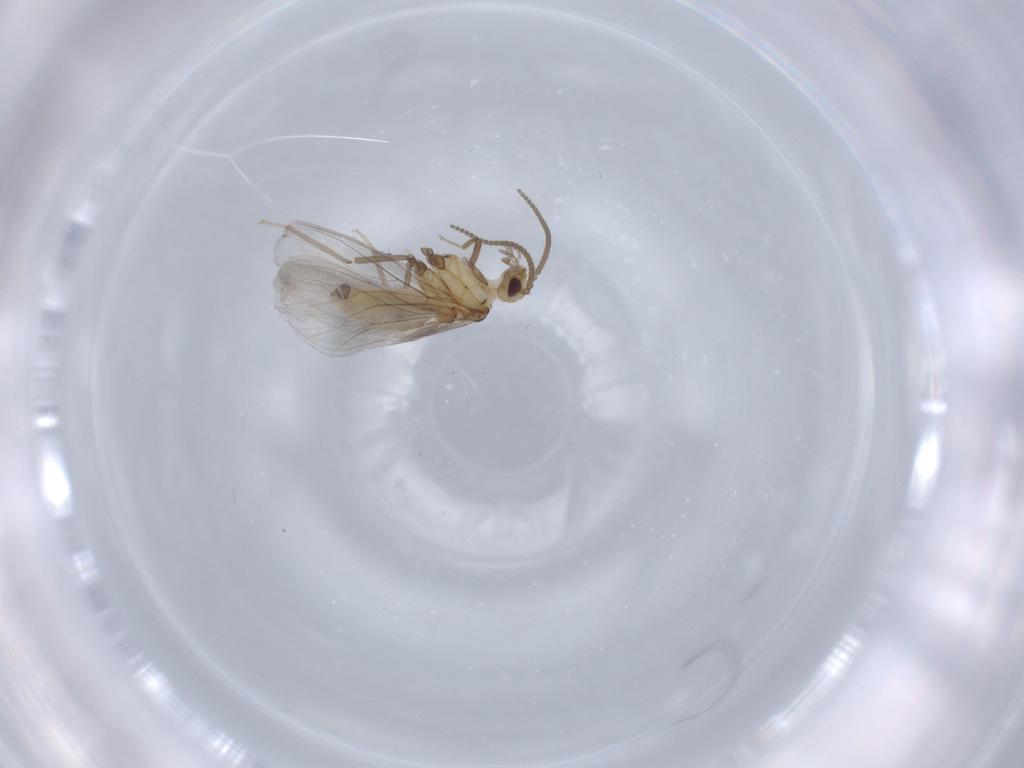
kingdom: Animalia
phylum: Arthropoda
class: Insecta
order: Neuroptera
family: Coniopterygidae
